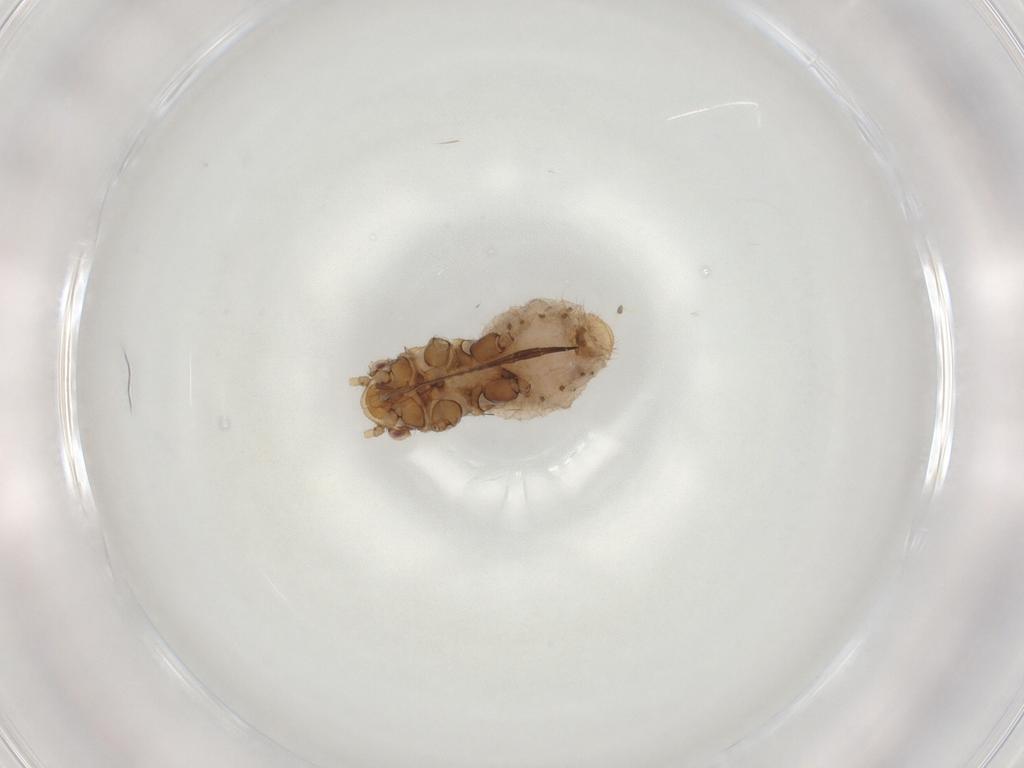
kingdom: Animalia
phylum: Arthropoda
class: Insecta
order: Hemiptera
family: Aphididae
